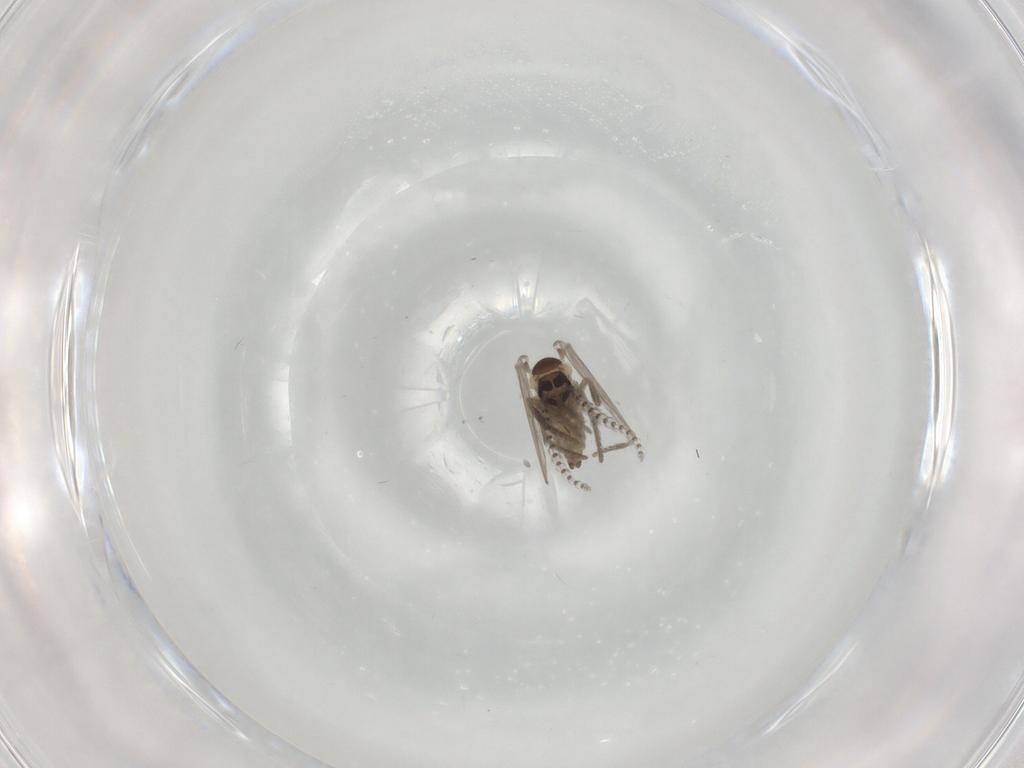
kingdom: Animalia
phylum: Arthropoda
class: Insecta
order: Diptera
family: Psychodidae
